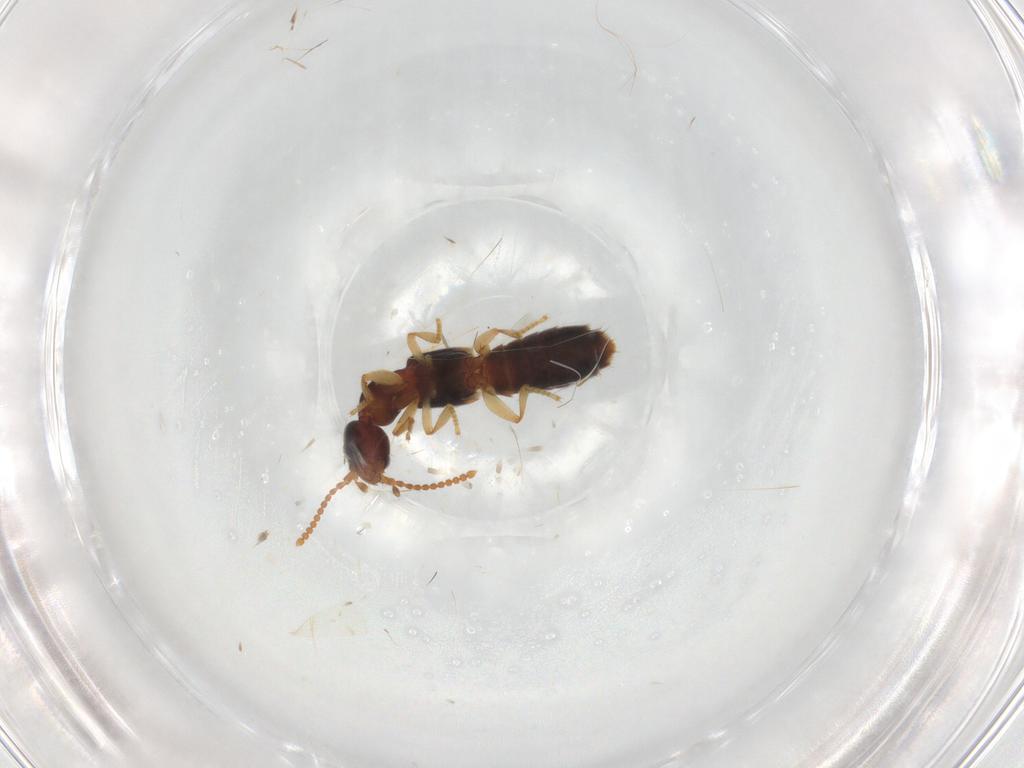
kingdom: Animalia
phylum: Arthropoda
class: Insecta
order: Coleoptera
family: Staphylinidae
